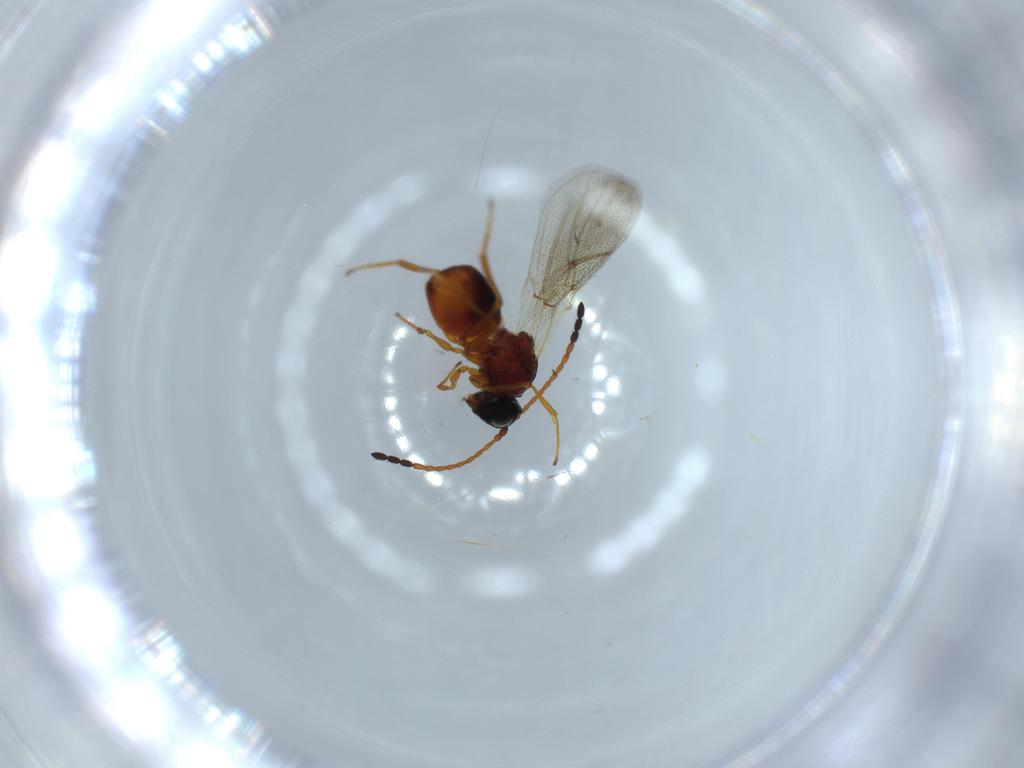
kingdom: Animalia
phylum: Arthropoda
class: Insecta
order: Hymenoptera
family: Figitidae
